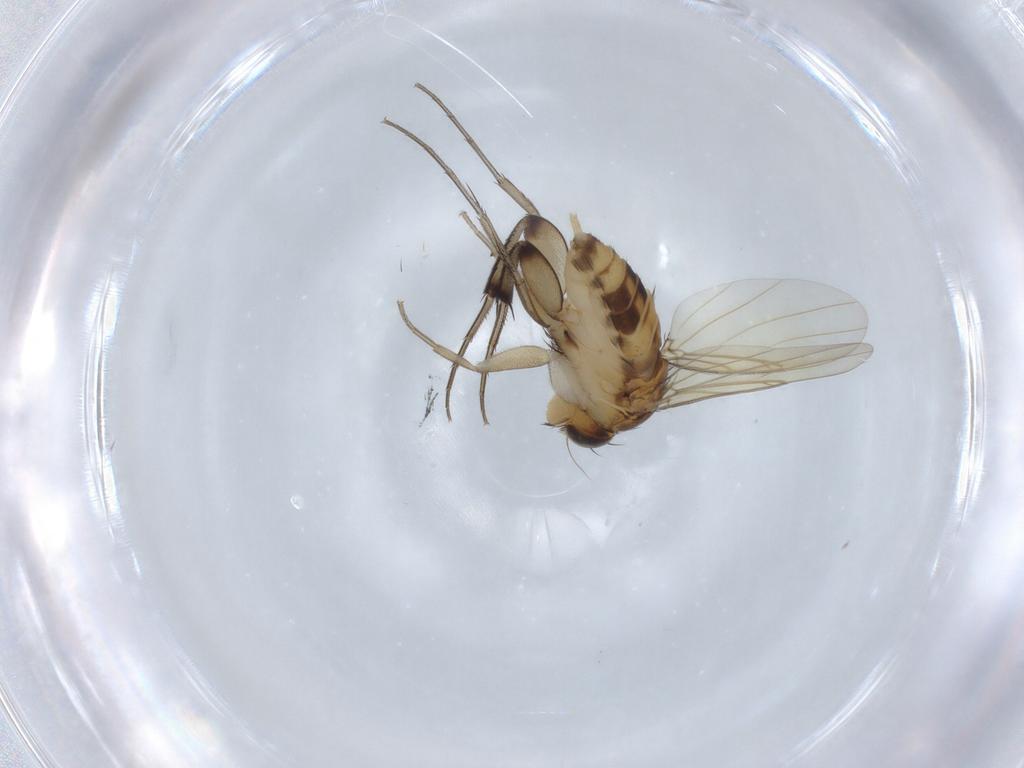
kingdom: Animalia
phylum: Arthropoda
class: Insecta
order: Diptera
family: Phoridae
